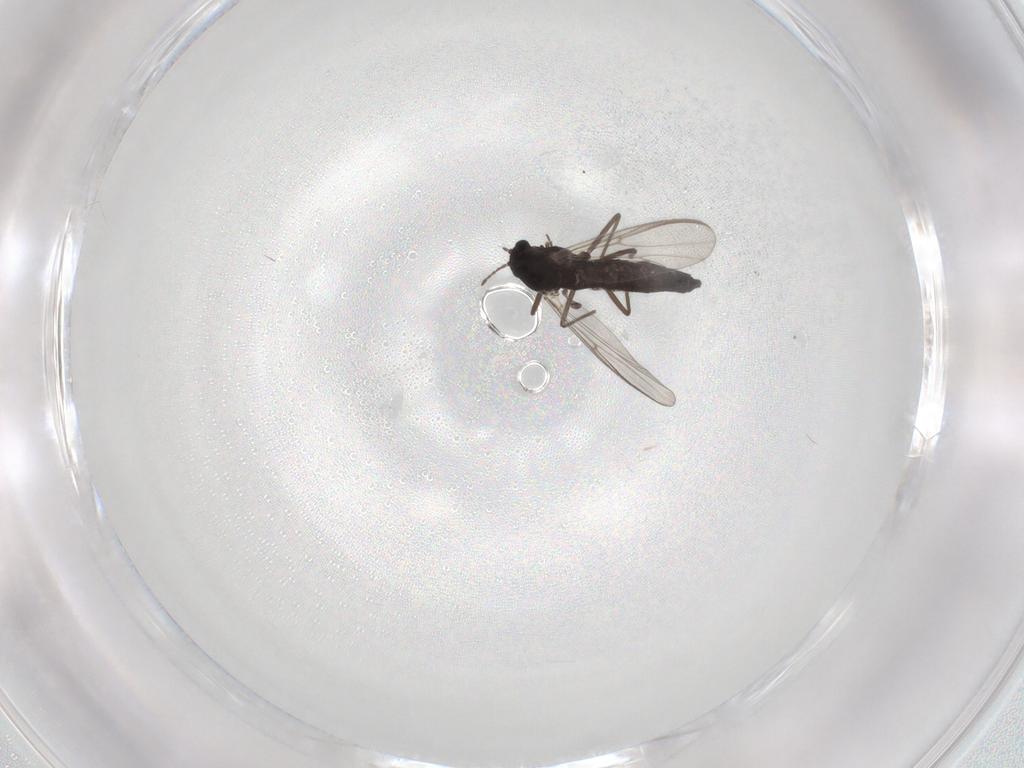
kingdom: Animalia
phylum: Arthropoda
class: Insecta
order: Diptera
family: Chironomidae
